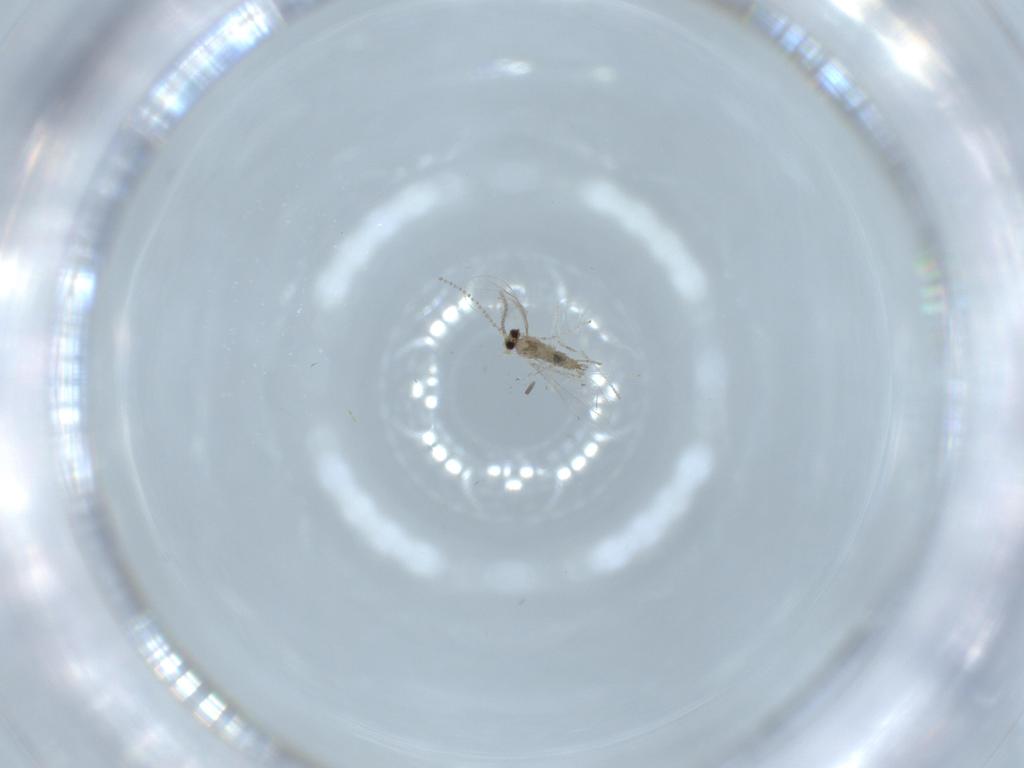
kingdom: Animalia
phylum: Arthropoda
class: Insecta
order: Diptera
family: Cecidomyiidae
